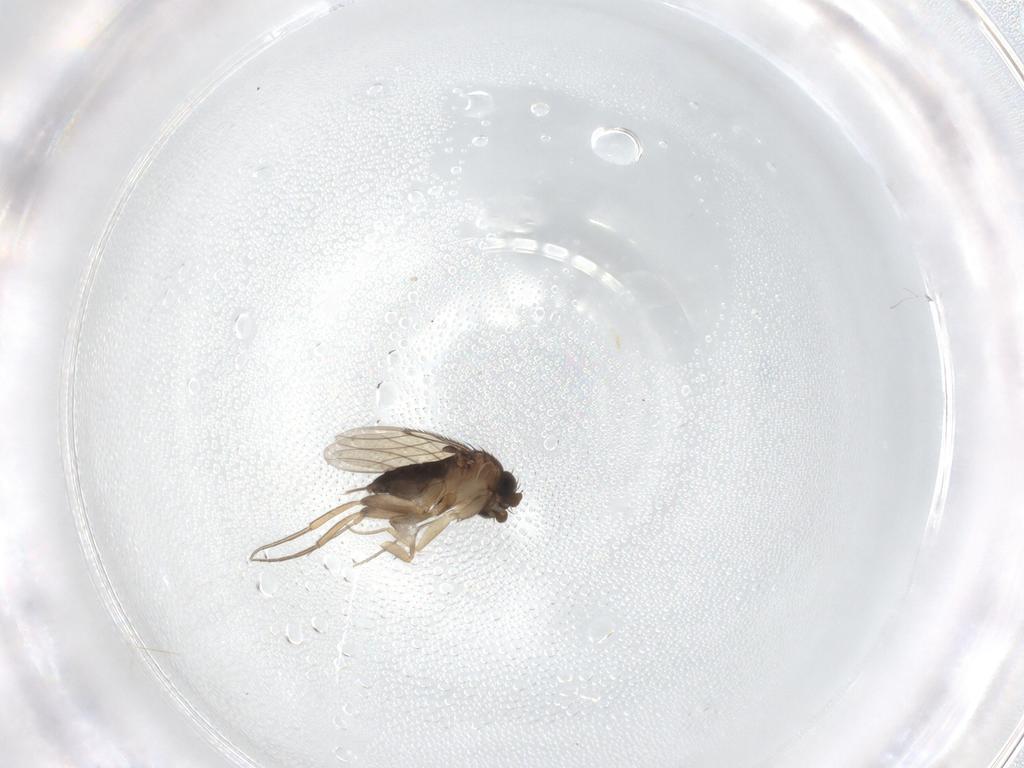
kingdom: Animalia
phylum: Arthropoda
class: Insecta
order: Diptera
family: Cecidomyiidae
